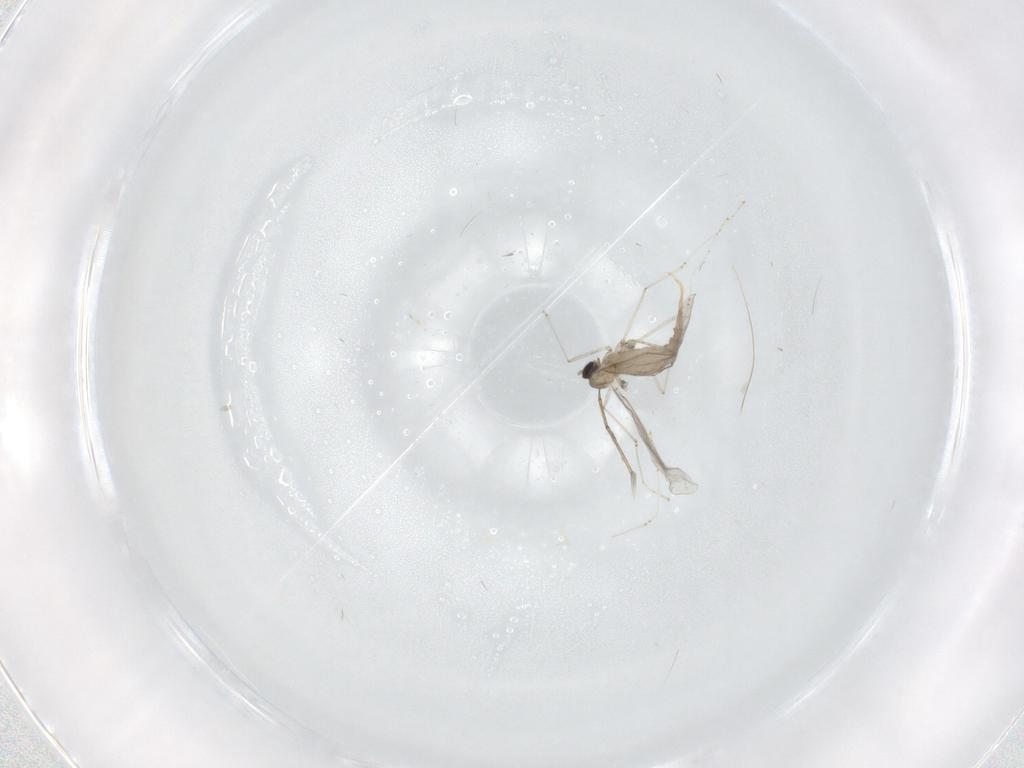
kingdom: Animalia
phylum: Arthropoda
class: Insecta
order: Diptera
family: Cecidomyiidae
